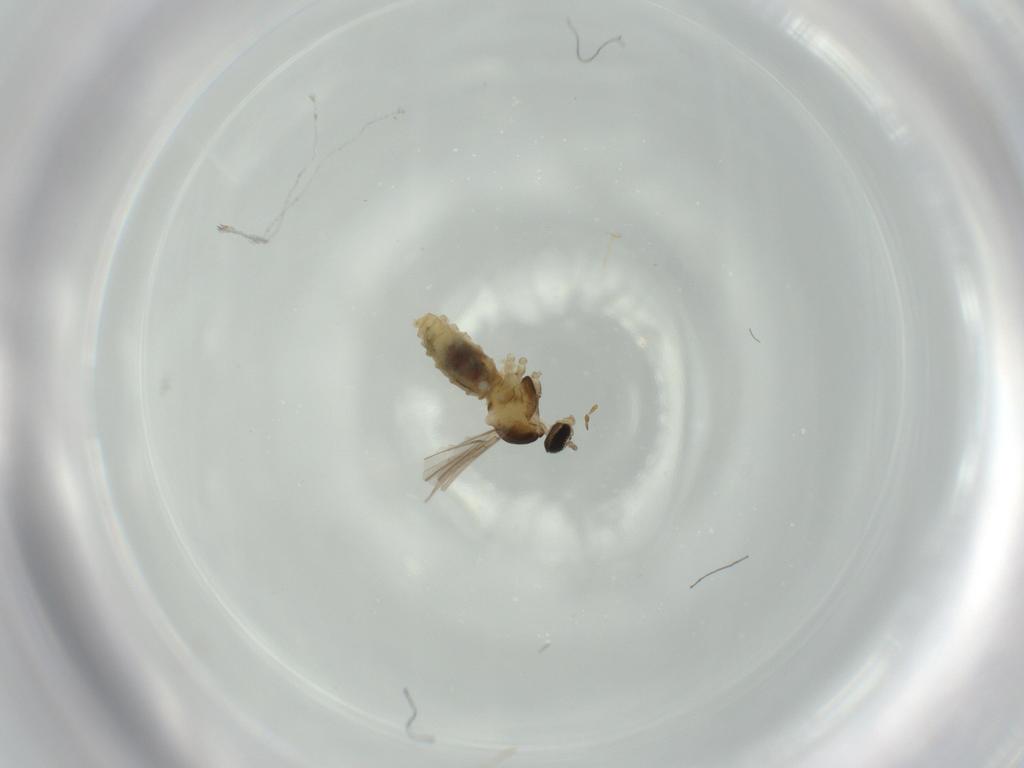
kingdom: Animalia
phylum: Arthropoda
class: Insecta
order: Diptera
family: Cecidomyiidae
